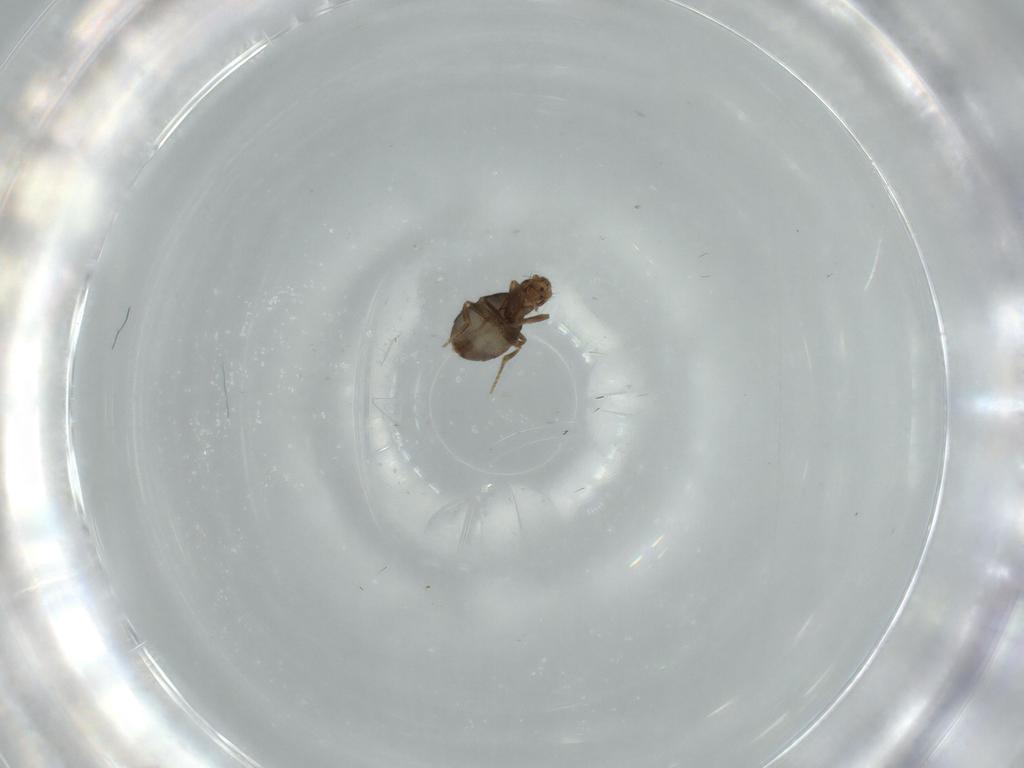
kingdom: Animalia
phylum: Arthropoda
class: Insecta
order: Diptera
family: Phoridae
